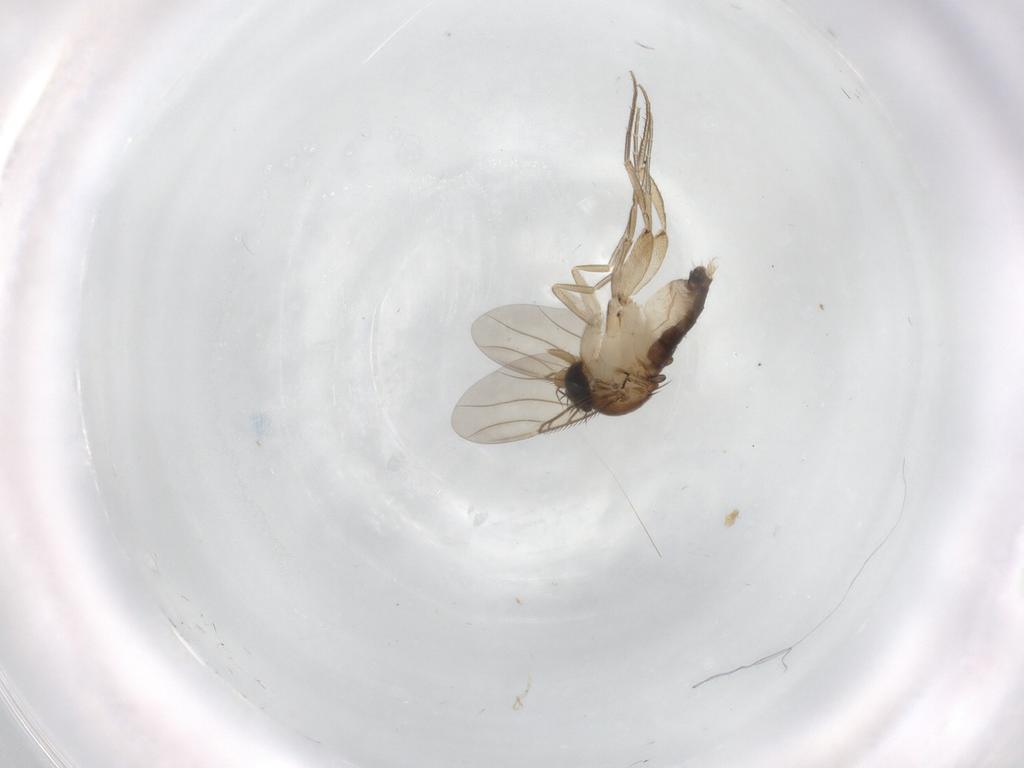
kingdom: Animalia
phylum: Arthropoda
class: Insecta
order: Diptera
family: Phoridae
